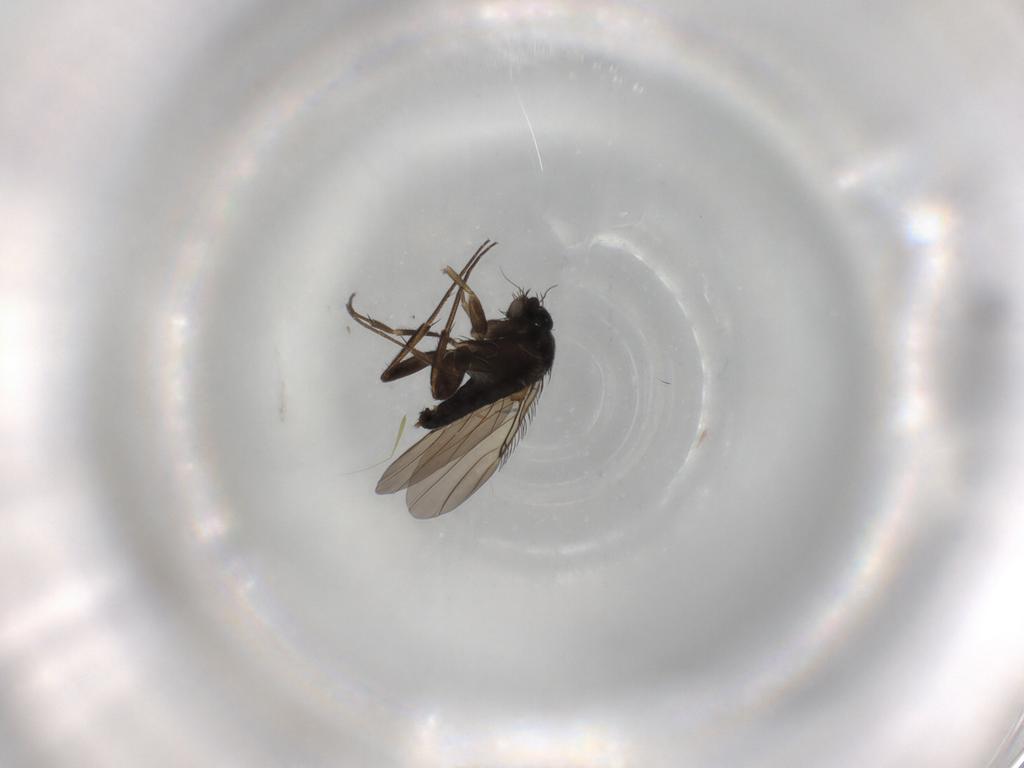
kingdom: Animalia
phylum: Arthropoda
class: Insecta
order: Diptera
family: Phoridae
